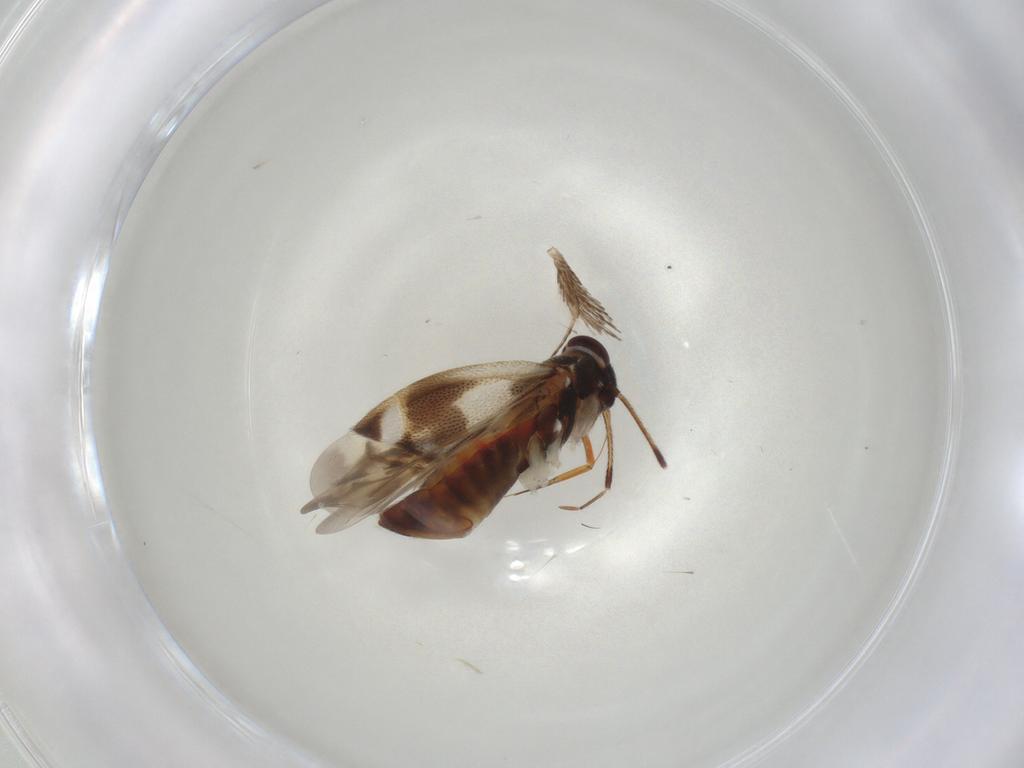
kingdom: Animalia
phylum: Arthropoda
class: Insecta
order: Hemiptera
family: Miridae
